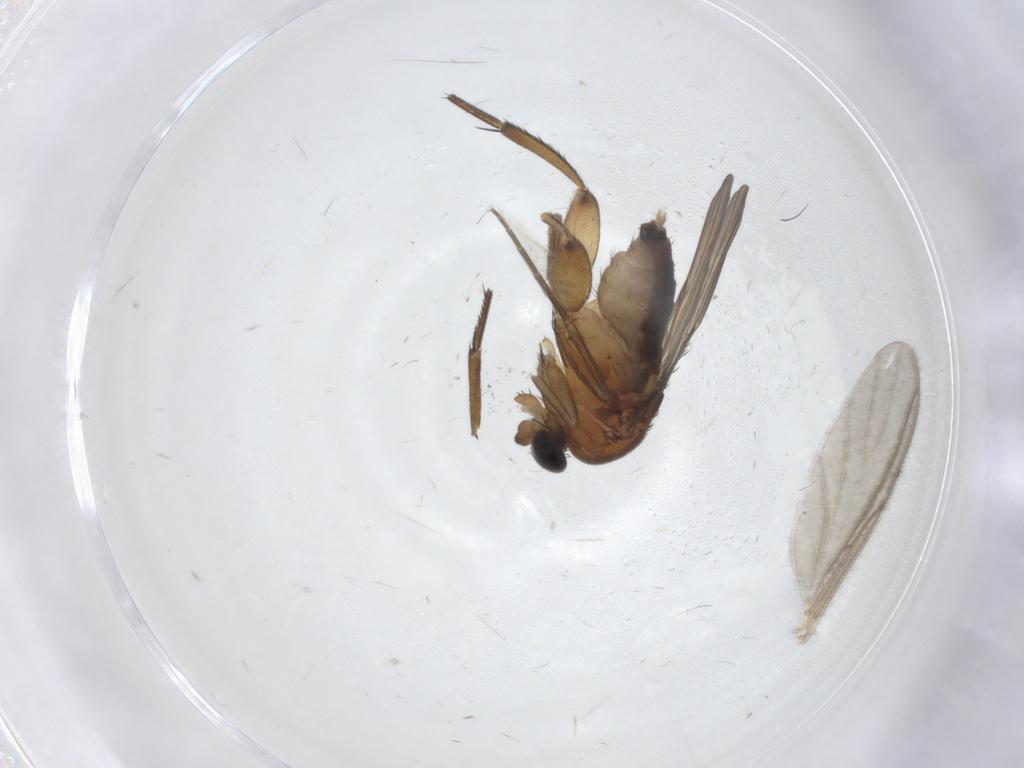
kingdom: Animalia
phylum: Arthropoda
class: Insecta
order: Diptera
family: Phoridae
